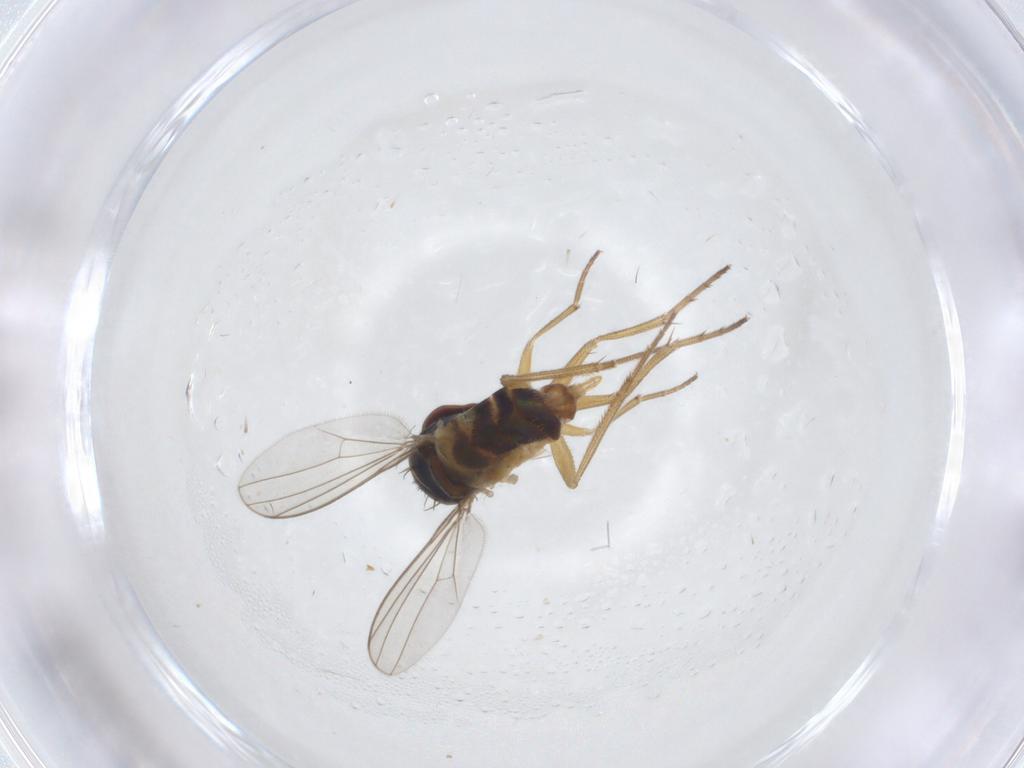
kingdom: Animalia
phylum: Arthropoda
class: Insecta
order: Diptera
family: Dolichopodidae
